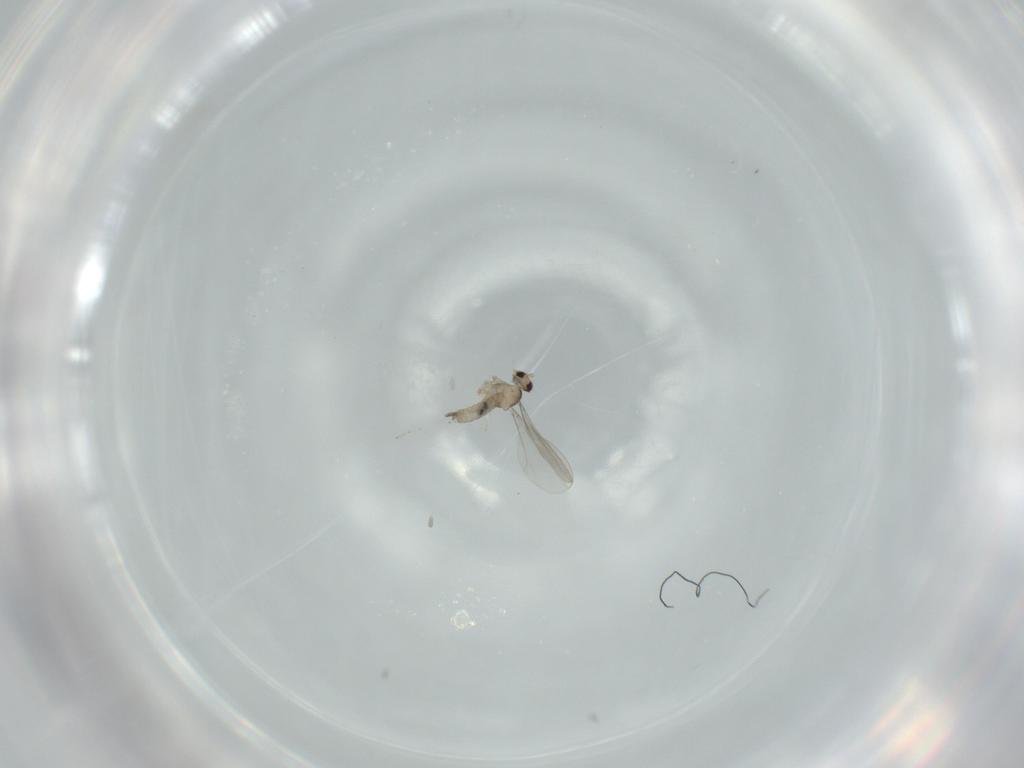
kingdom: Animalia
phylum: Arthropoda
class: Insecta
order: Diptera
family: Cecidomyiidae
